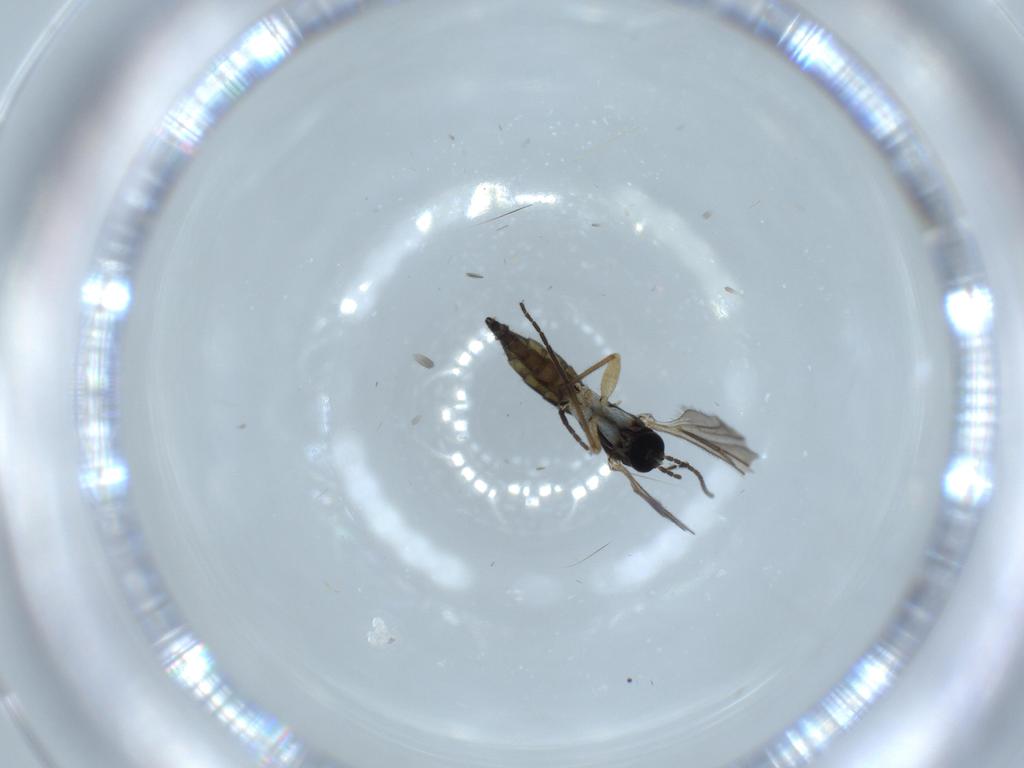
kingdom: Animalia
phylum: Arthropoda
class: Insecta
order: Diptera
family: Sciaridae
